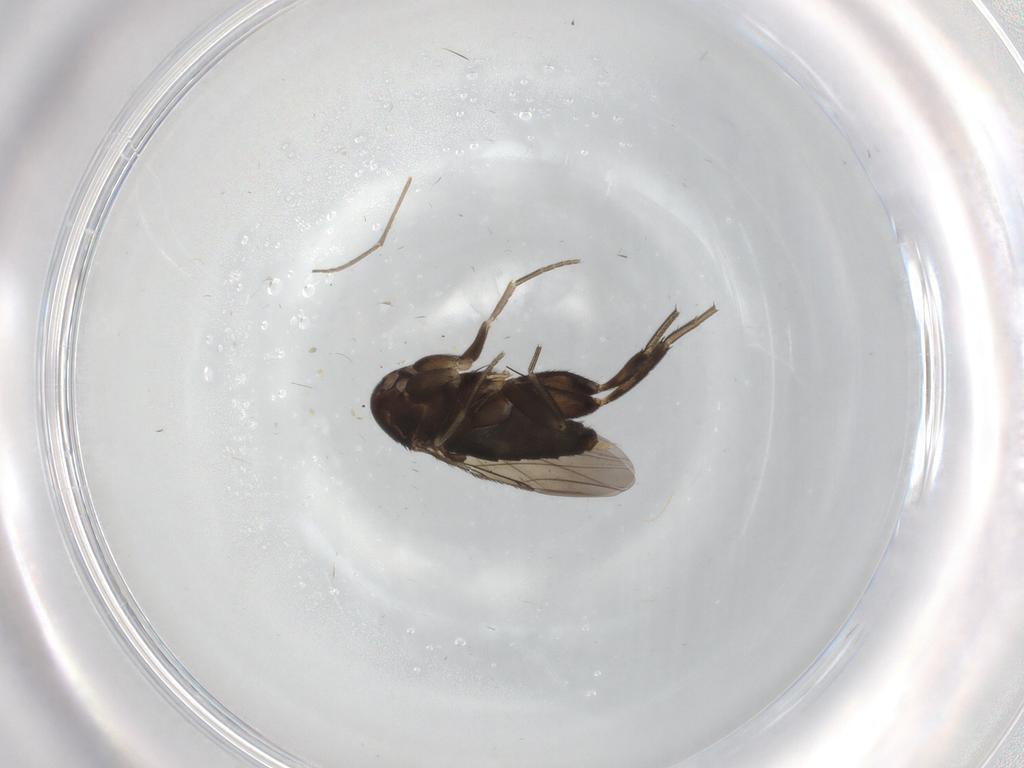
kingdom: Animalia
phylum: Arthropoda
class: Insecta
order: Diptera
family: Phoridae
